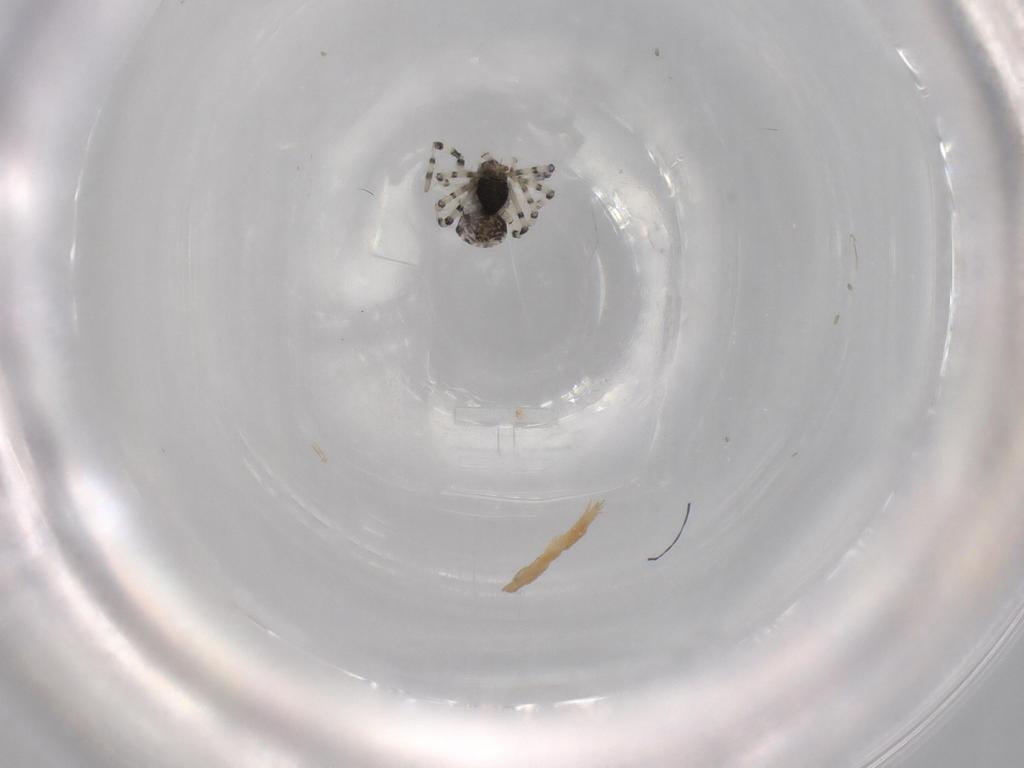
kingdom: Animalia
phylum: Arthropoda
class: Arachnida
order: Araneae
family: Mysmenidae
